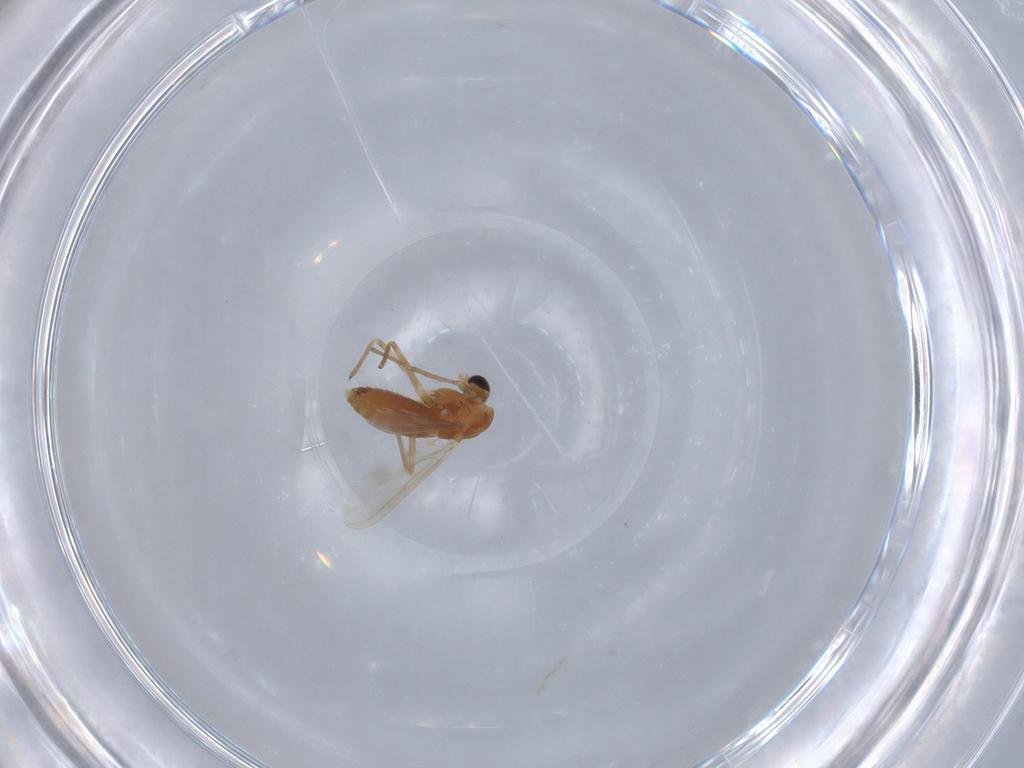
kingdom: Animalia
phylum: Arthropoda
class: Insecta
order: Diptera
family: Chironomidae
